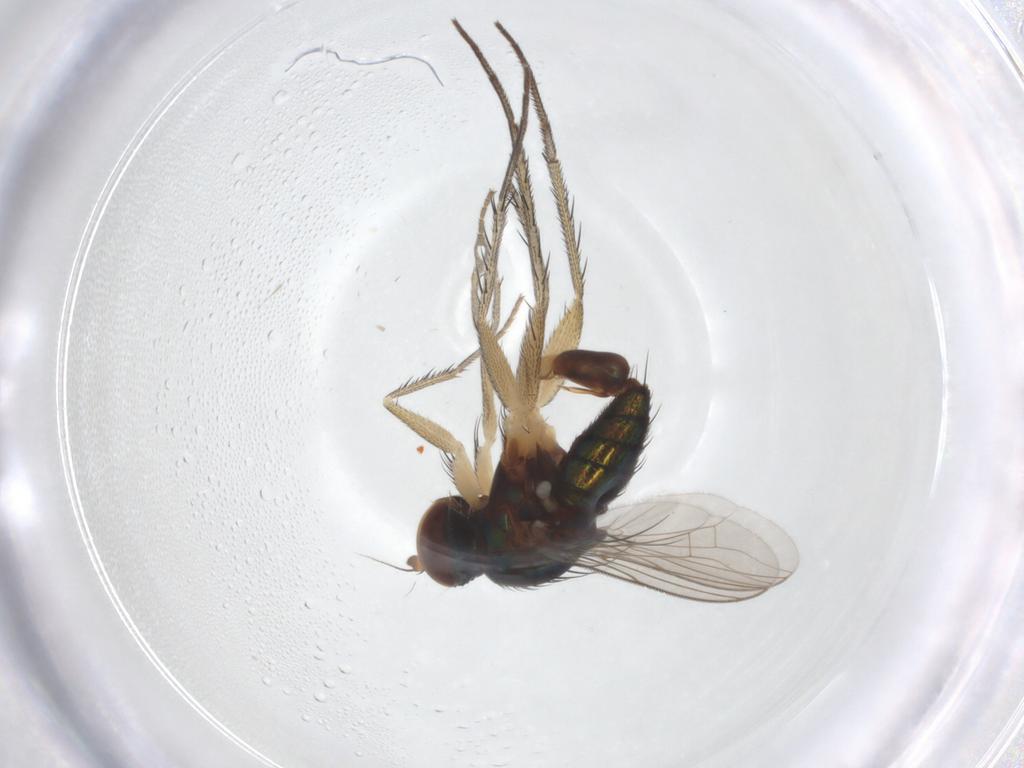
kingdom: Animalia
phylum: Arthropoda
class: Insecta
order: Diptera
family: Dolichopodidae
